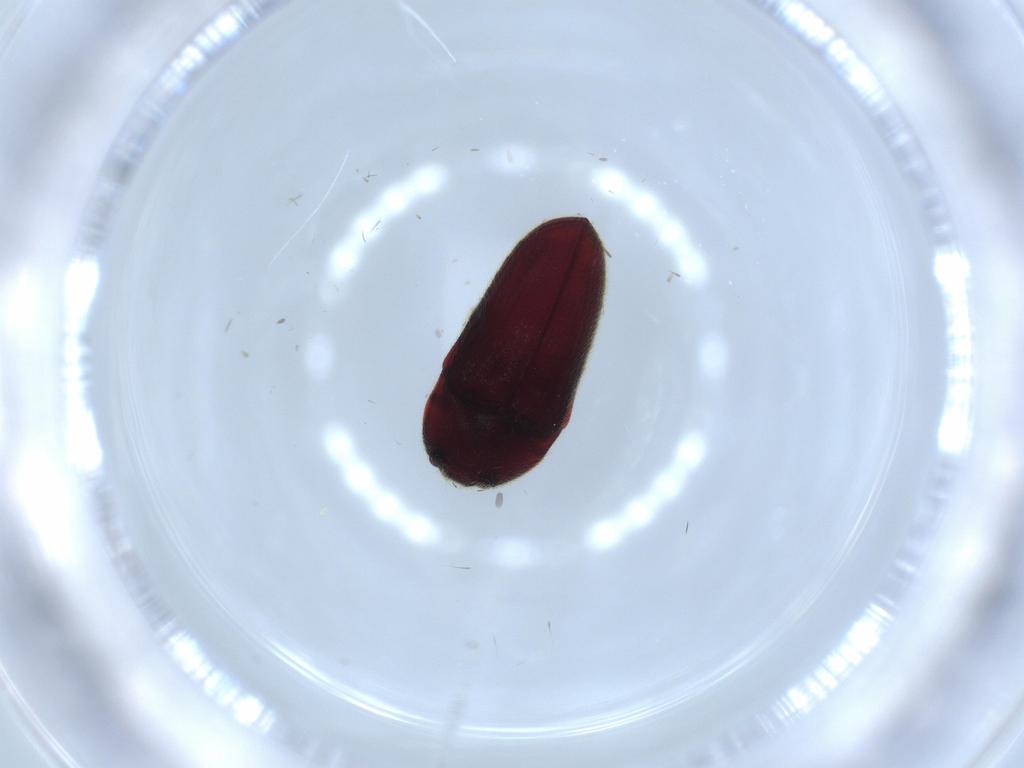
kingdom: Animalia
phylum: Arthropoda
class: Insecta
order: Coleoptera
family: Throscidae
